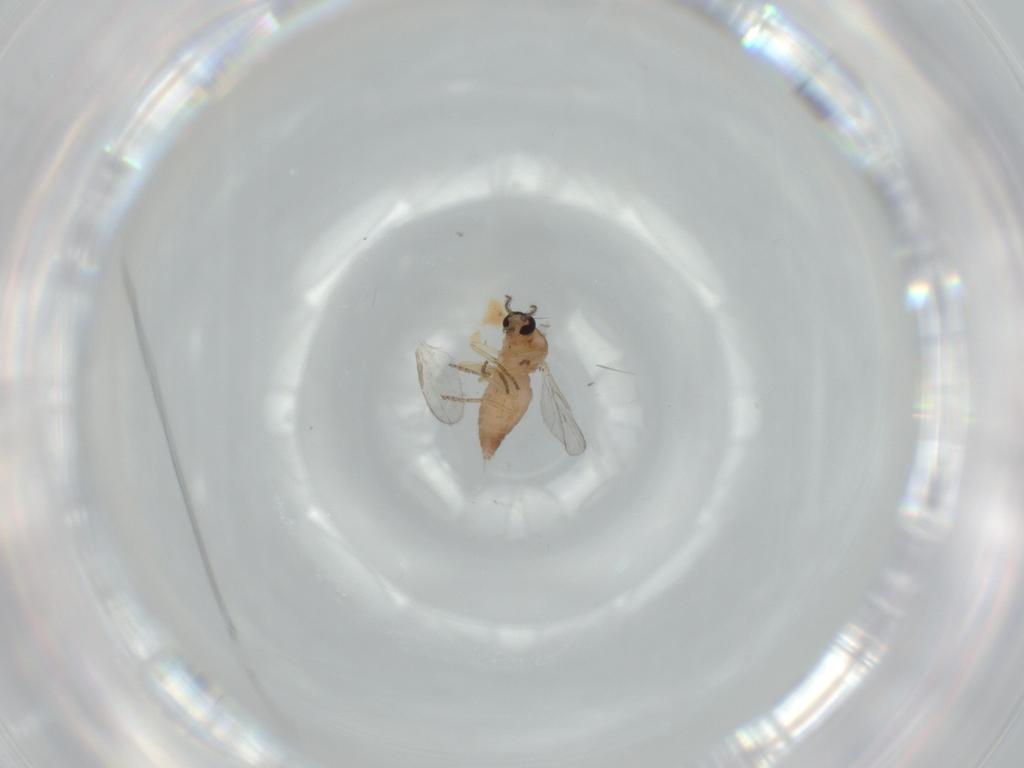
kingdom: Animalia
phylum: Arthropoda
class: Insecta
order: Diptera
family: Ceratopogonidae
